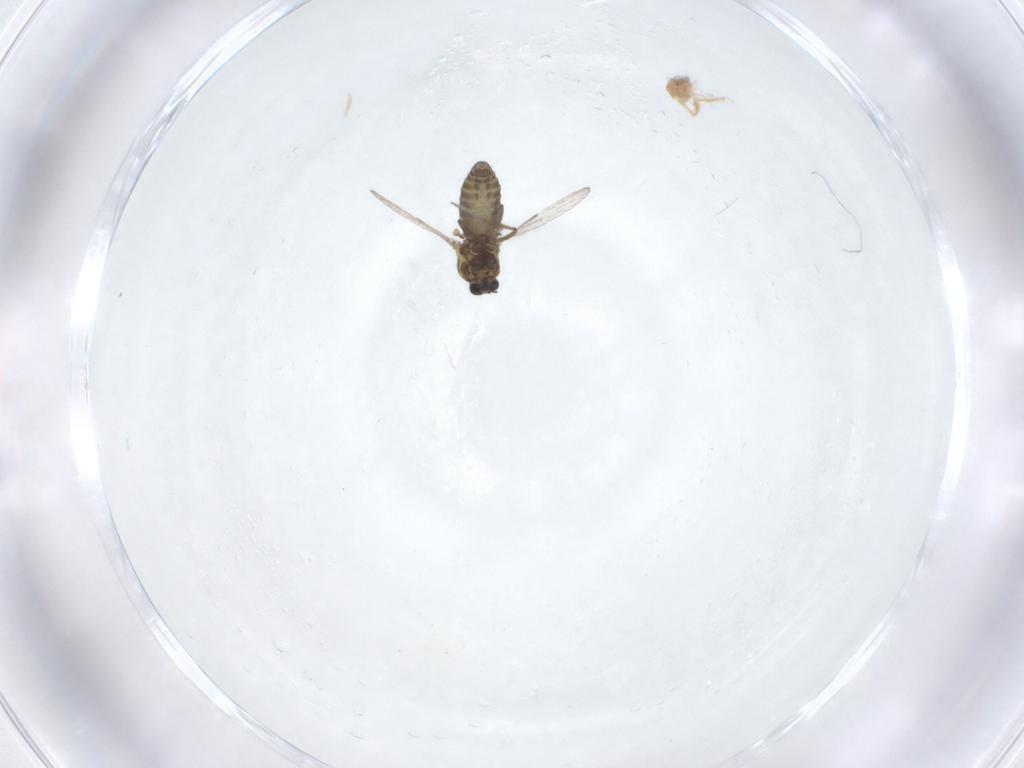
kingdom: Animalia
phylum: Arthropoda
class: Insecta
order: Diptera
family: Ceratopogonidae
